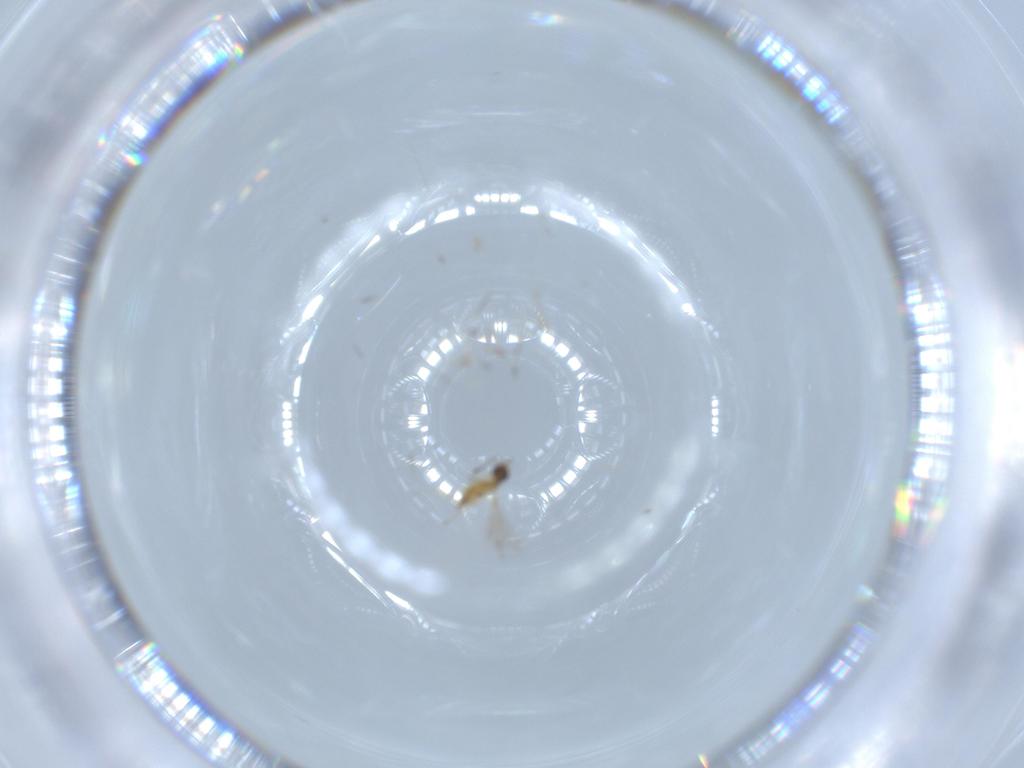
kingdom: Animalia
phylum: Arthropoda
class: Insecta
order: Hymenoptera
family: Mymaridae
